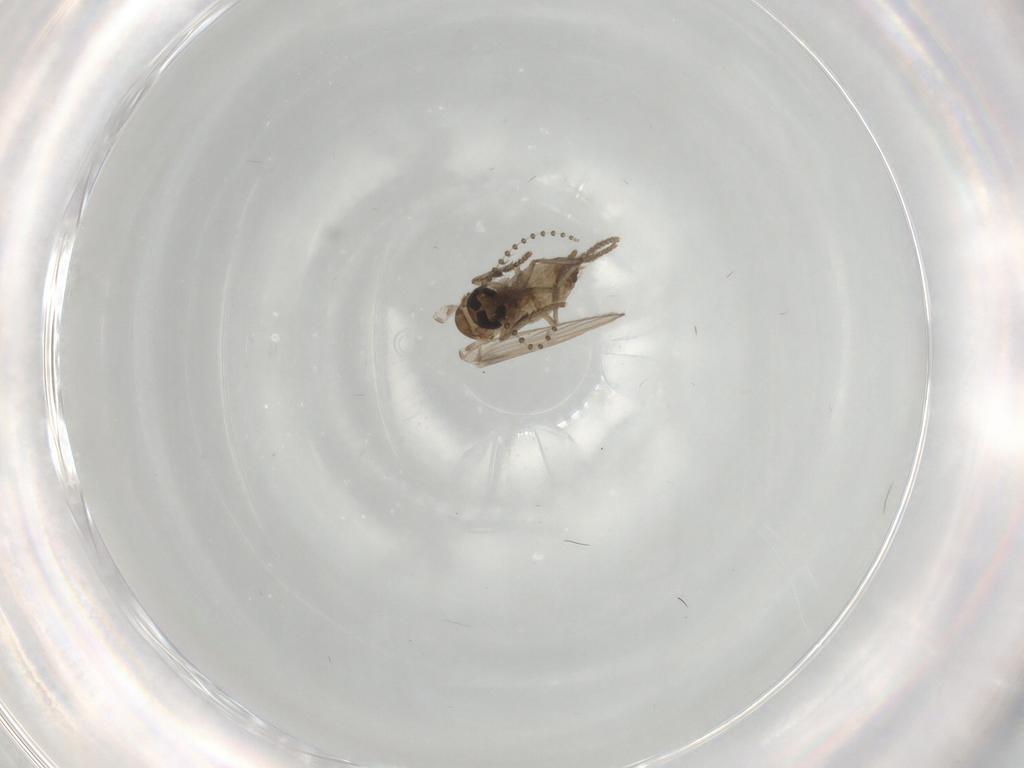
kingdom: Animalia
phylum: Arthropoda
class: Insecta
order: Diptera
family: Psychodidae
